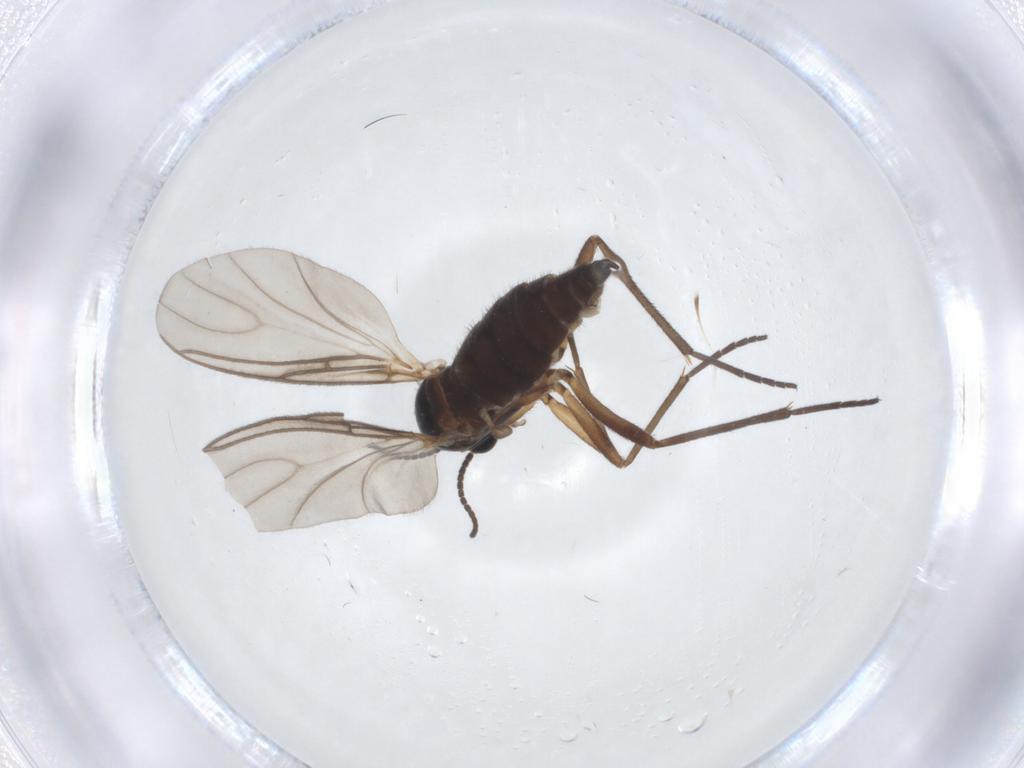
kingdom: Animalia
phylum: Arthropoda
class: Insecta
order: Diptera
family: Sciaridae
